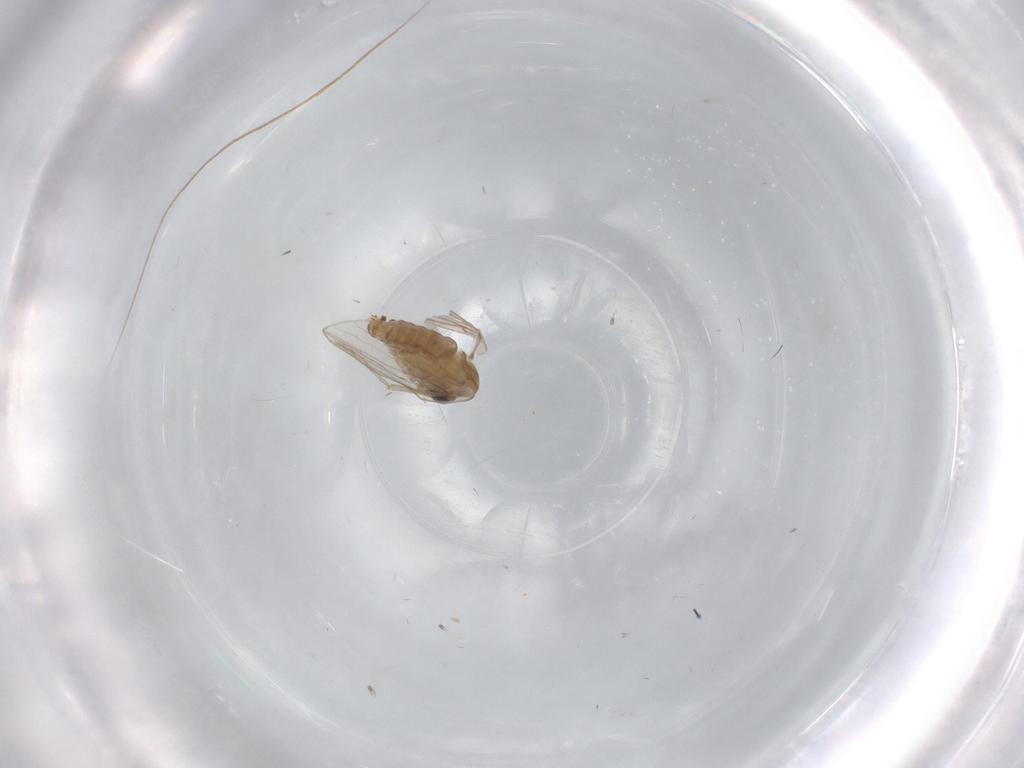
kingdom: Animalia
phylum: Arthropoda
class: Insecta
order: Diptera
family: Psychodidae
